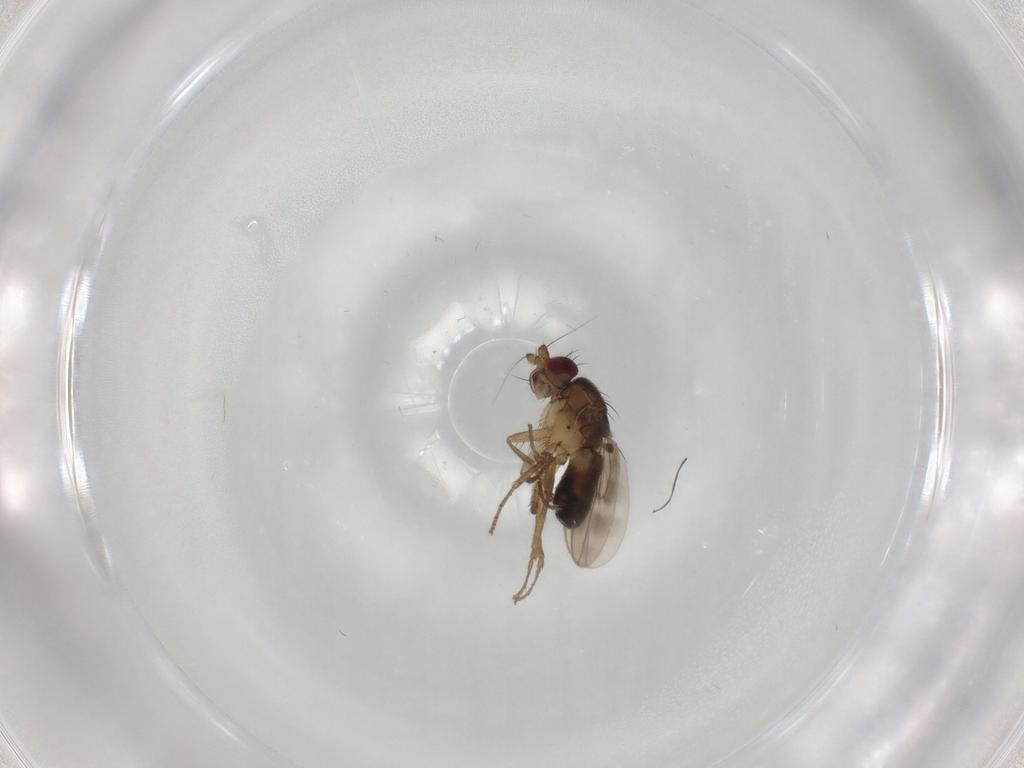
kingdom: Animalia
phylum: Arthropoda
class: Insecta
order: Diptera
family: Sphaeroceridae
